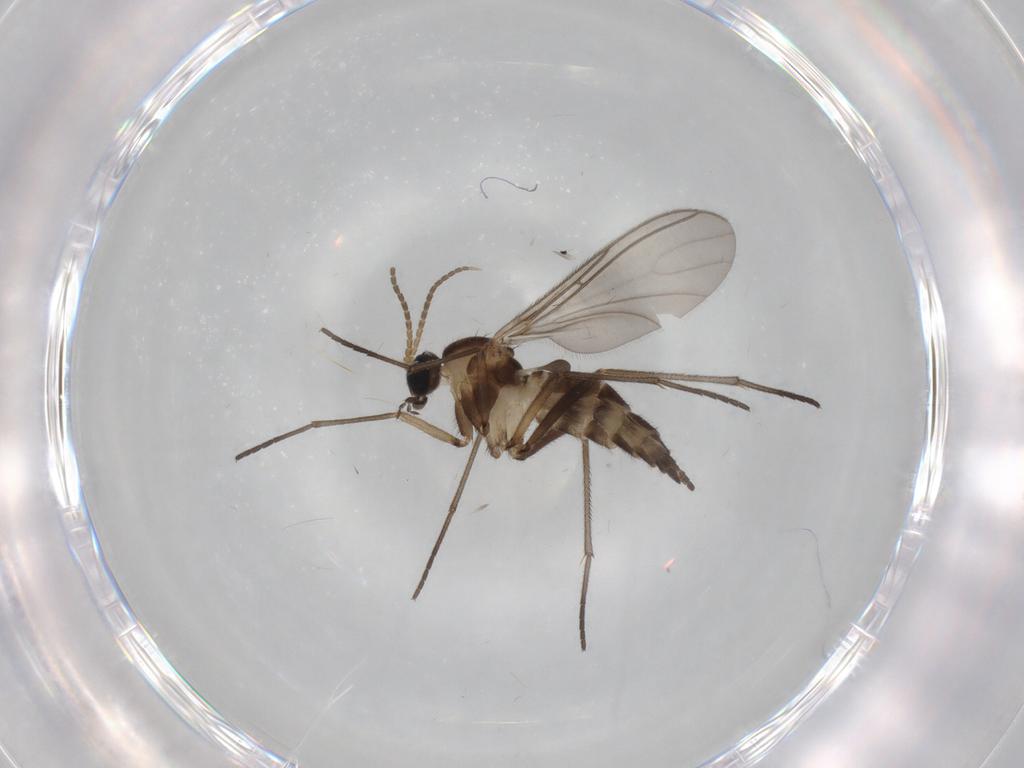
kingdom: Animalia
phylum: Arthropoda
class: Insecta
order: Diptera
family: Sciaridae
